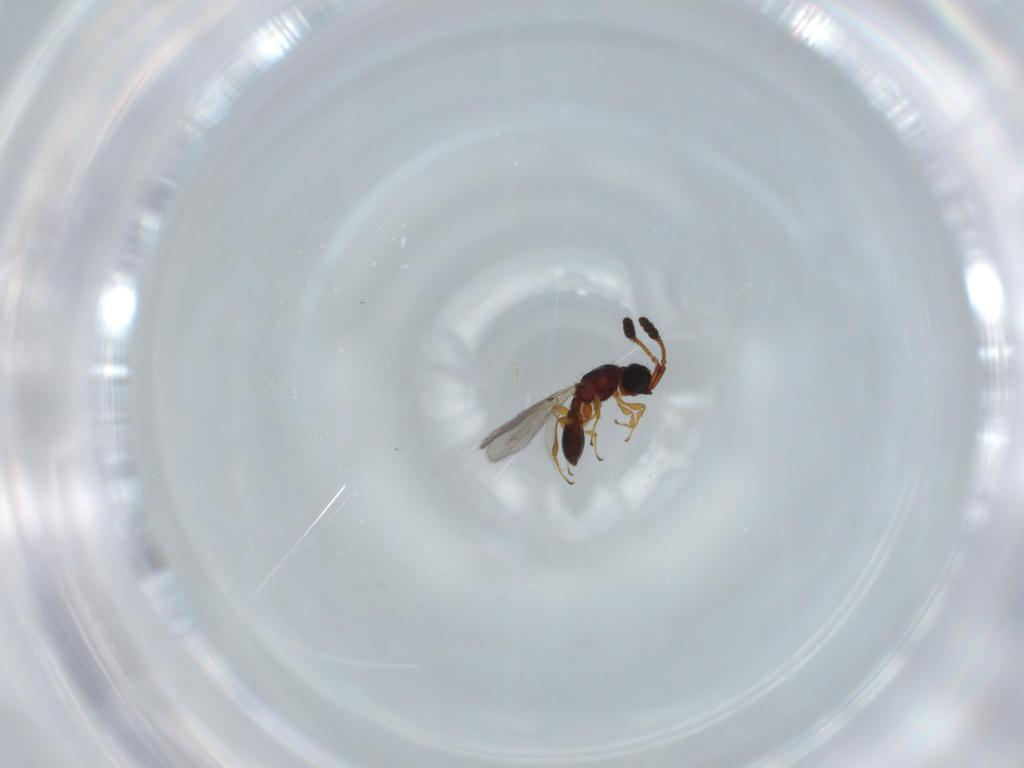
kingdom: Animalia
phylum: Arthropoda
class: Insecta
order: Hymenoptera
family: Diapriidae
